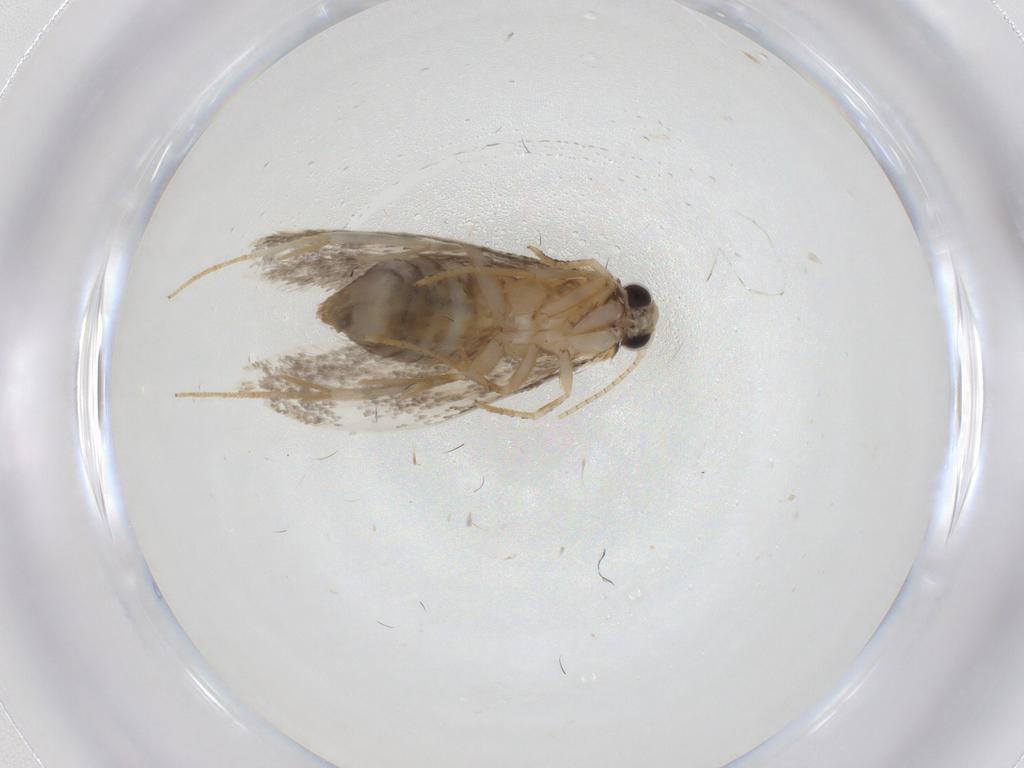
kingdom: Animalia
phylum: Arthropoda
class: Insecta
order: Lepidoptera
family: Tineidae
